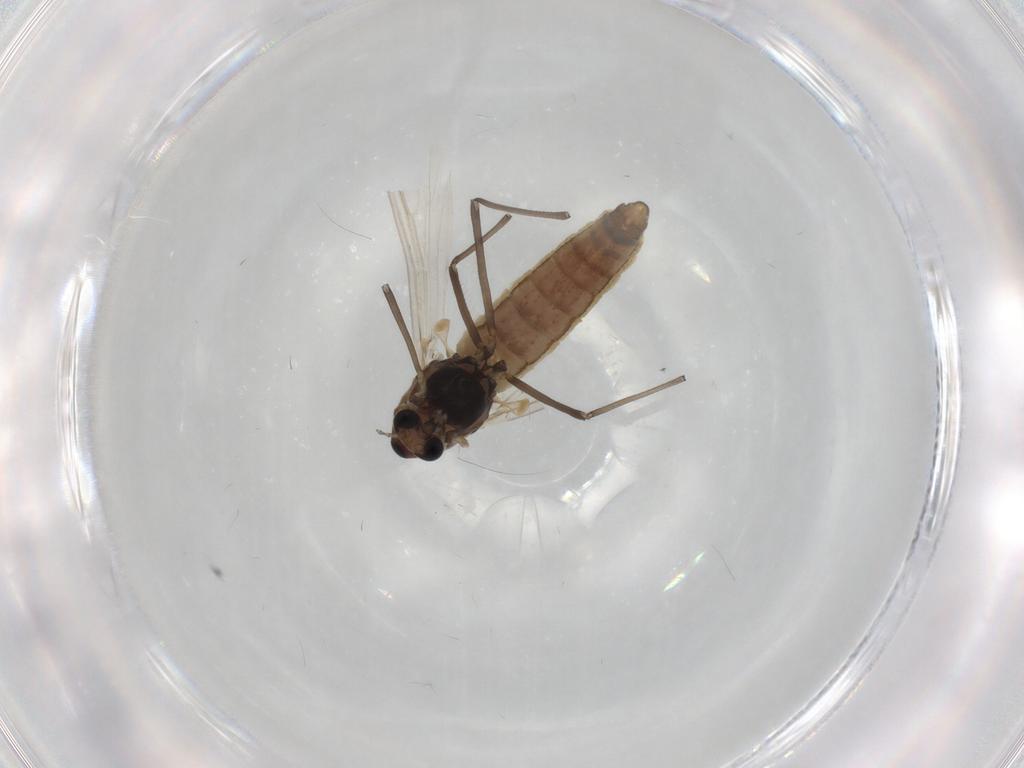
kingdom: Animalia
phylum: Arthropoda
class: Insecta
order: Diptera
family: Chironomidae
